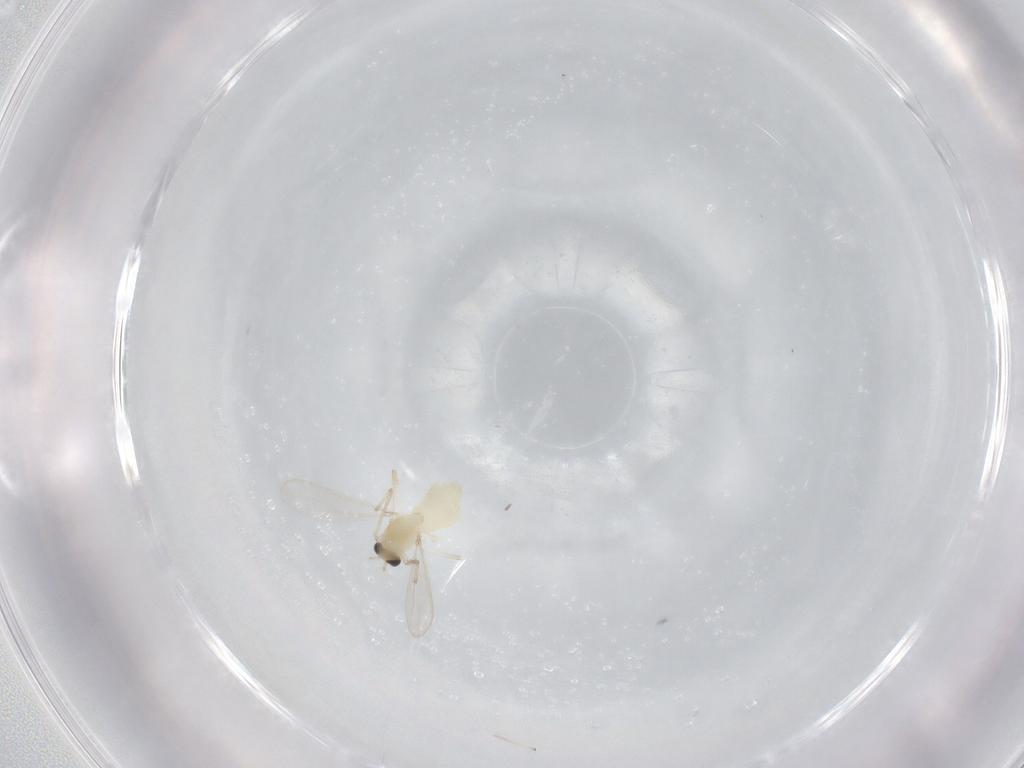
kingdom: Animalia
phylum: Arthropoda
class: Insecta
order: Diptera
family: Chironomidae
